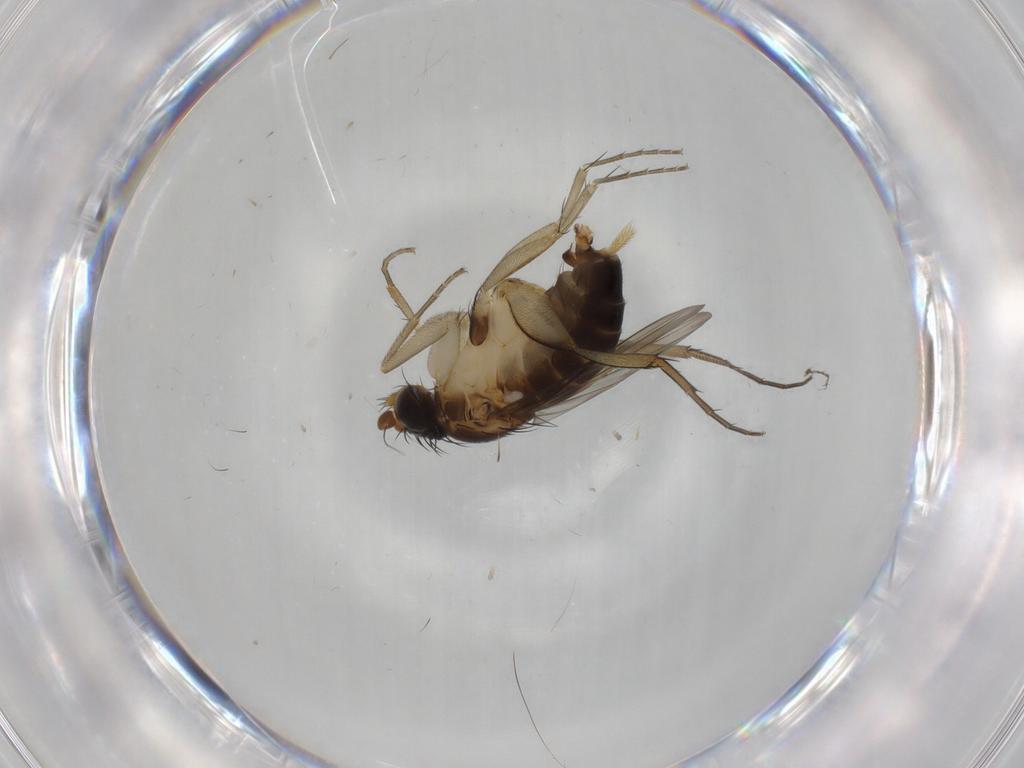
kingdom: Animalia
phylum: Arthropoda
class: Insecta
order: Diptera
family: Phoridae
